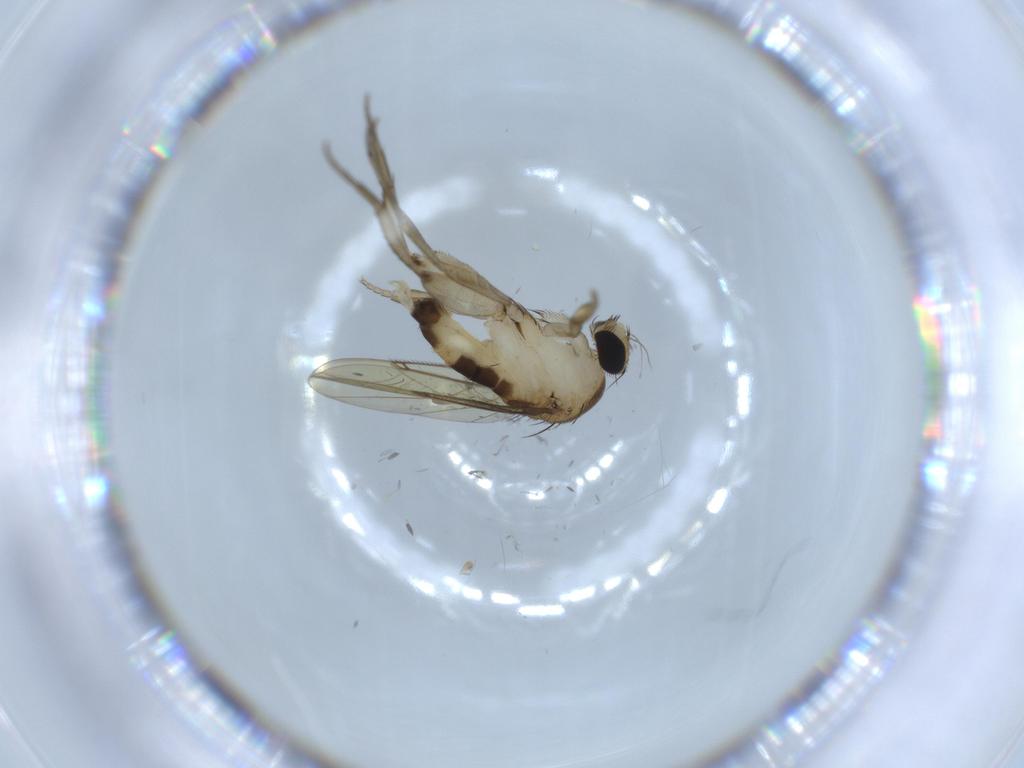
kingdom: Animalia
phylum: Arthropoda
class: Insecta
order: Diptera
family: Phoridae
